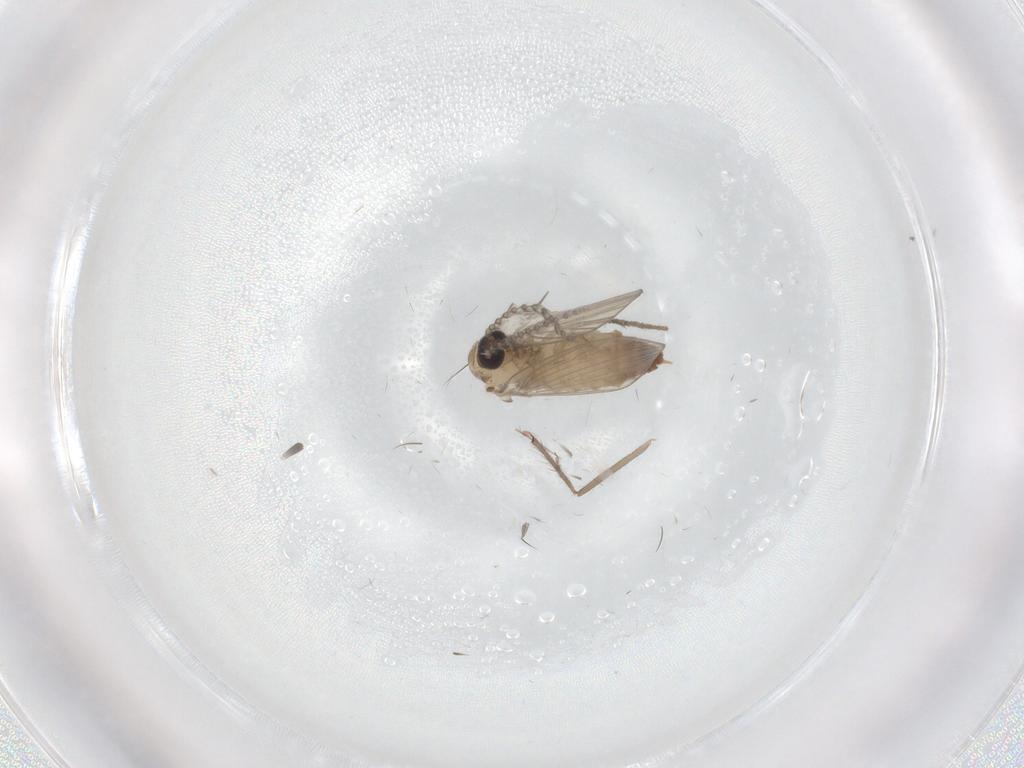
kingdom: Animalia
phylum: Arthropoda
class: Insecta
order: Diptera
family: Psychodidae
